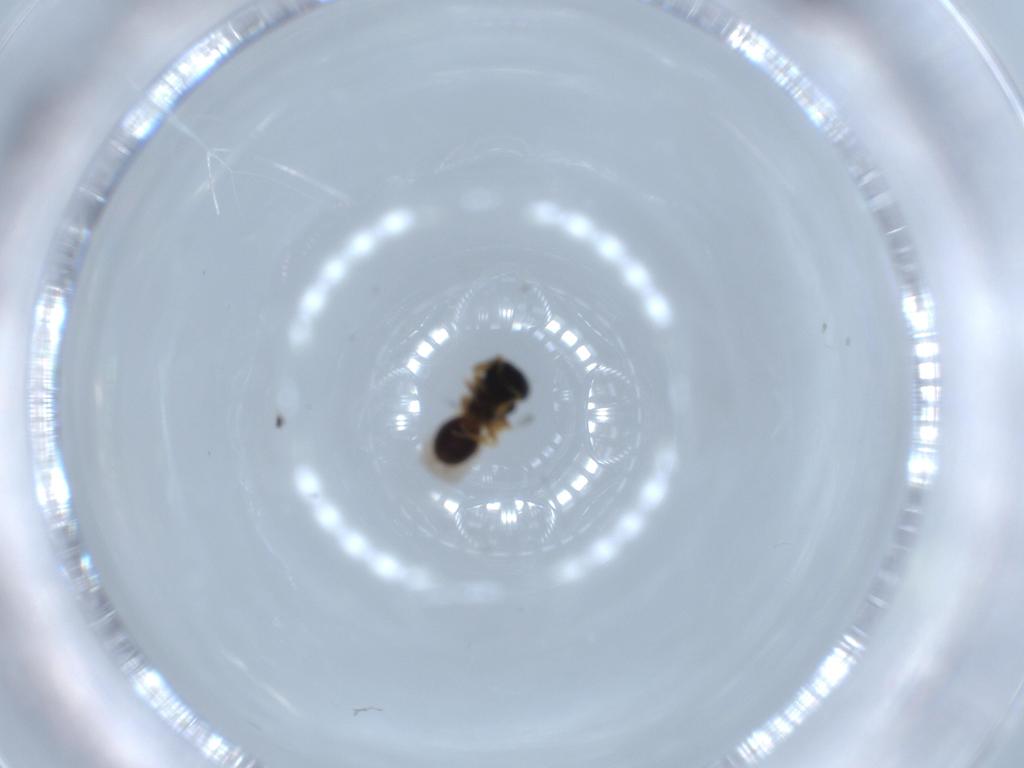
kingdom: Animalia
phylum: Arthropoda
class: Insecta
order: Hymenoptera
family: Scelionidae
